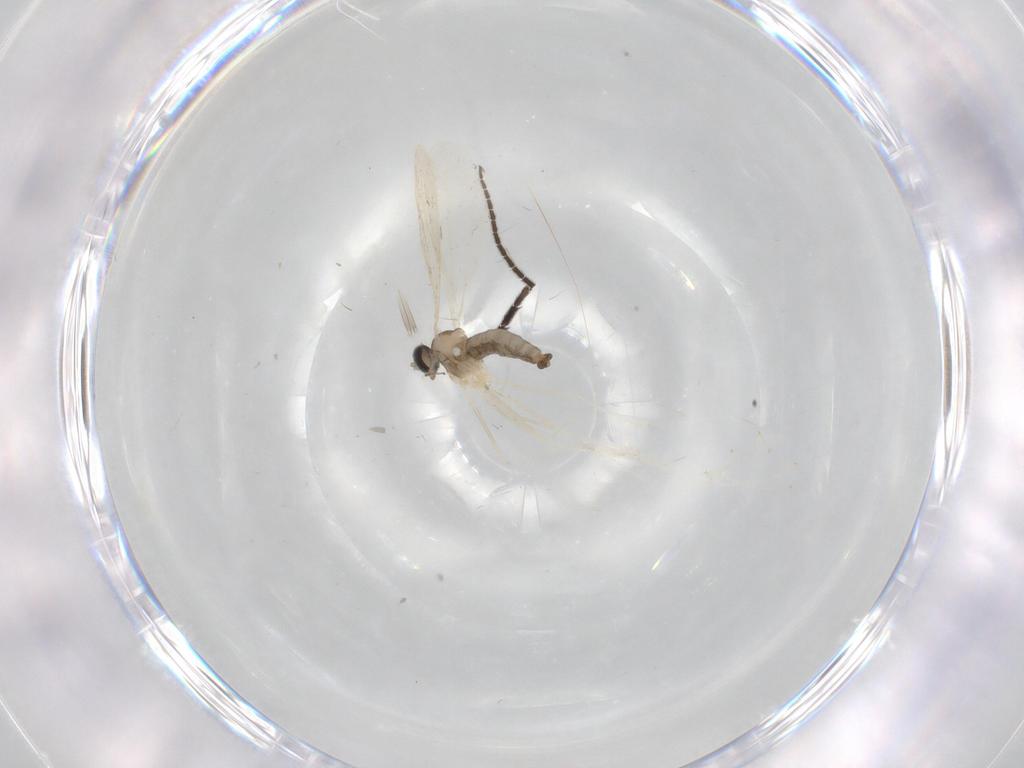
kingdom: Animalia
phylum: Arthropoda
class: Insecta
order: Diptera
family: Cecidomyiidae
